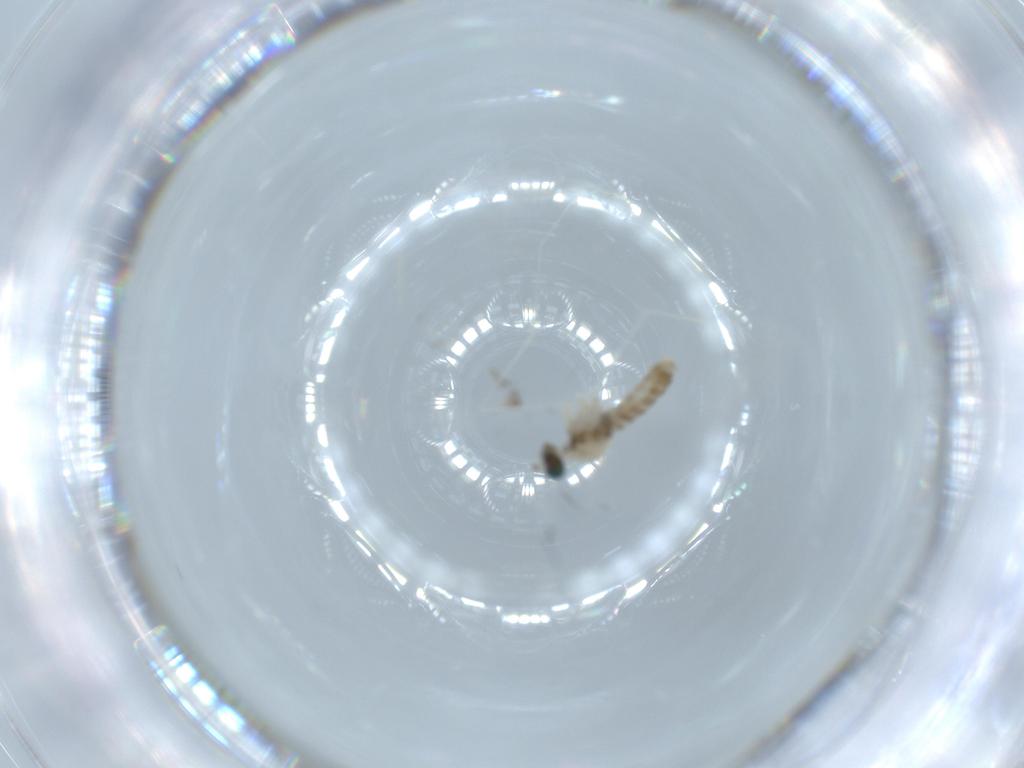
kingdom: Animalia
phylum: Arthropoda
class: Insecta
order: Diptera
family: Cecidomyiidae
